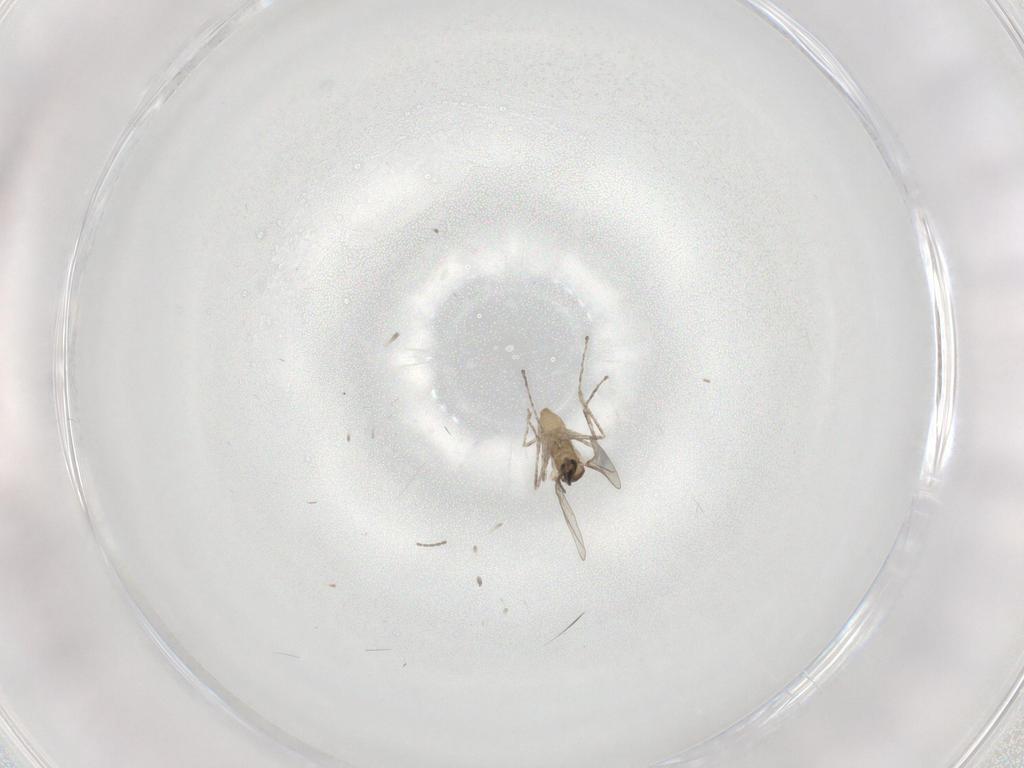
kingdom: Animalia
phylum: Arthropoda
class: Insecta
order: Diptera
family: Cecidomyiidae
